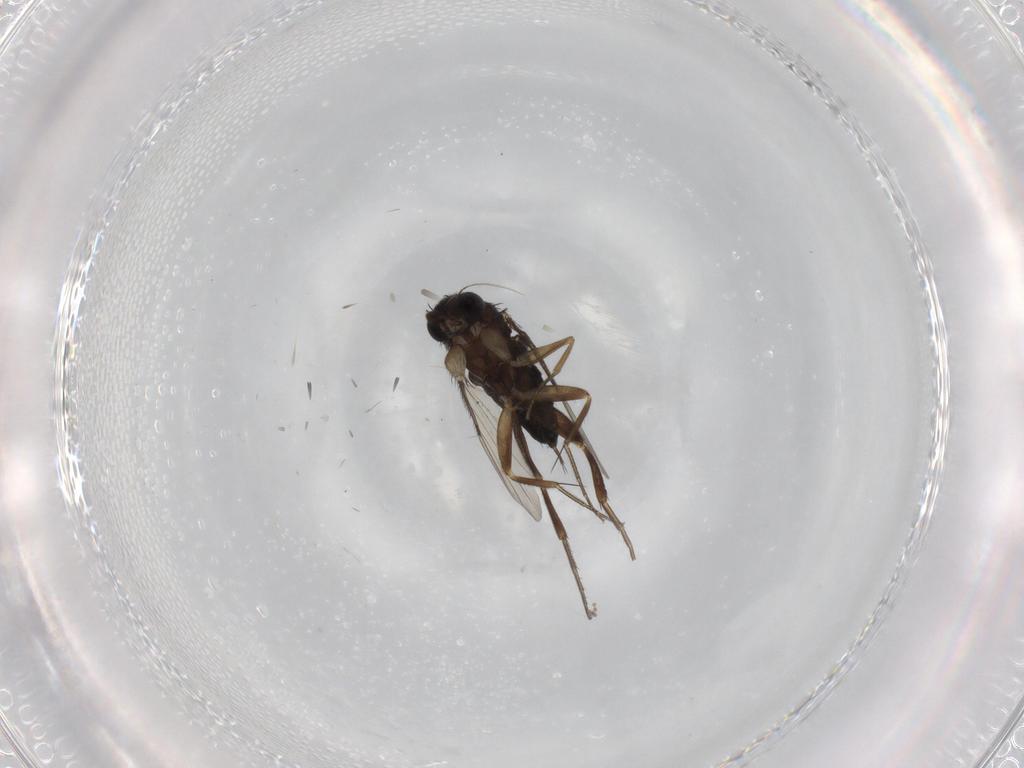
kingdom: Animalia
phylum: Arthropoda
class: Insecta
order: Diptera
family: Phoridae
